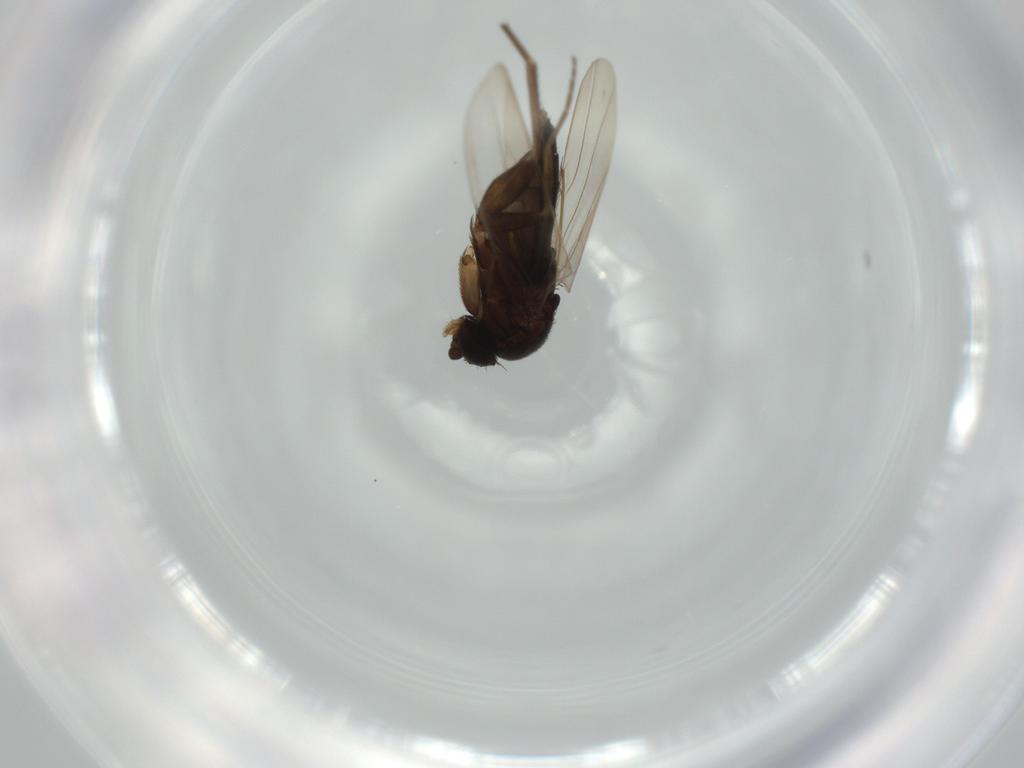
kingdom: Animalia
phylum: Arthropoda
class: Insecta
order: Diptera
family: Phoridae
